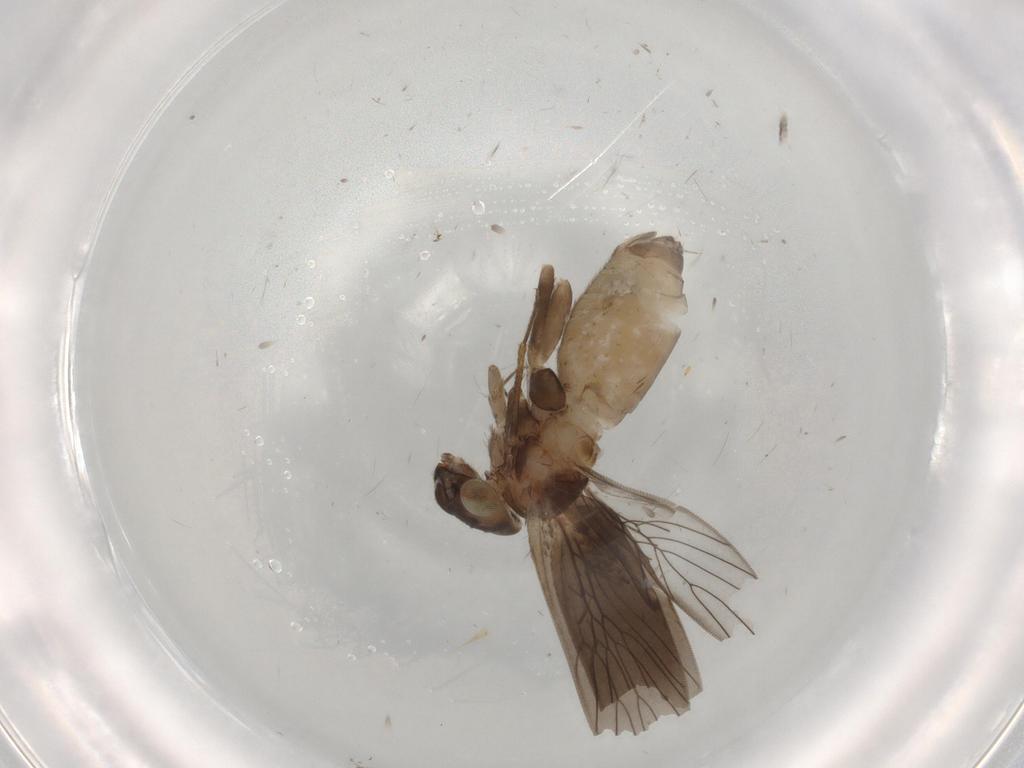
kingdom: Animalia
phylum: Arthropoda
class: Insecta
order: Psocodea
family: Lepidopsocidae
